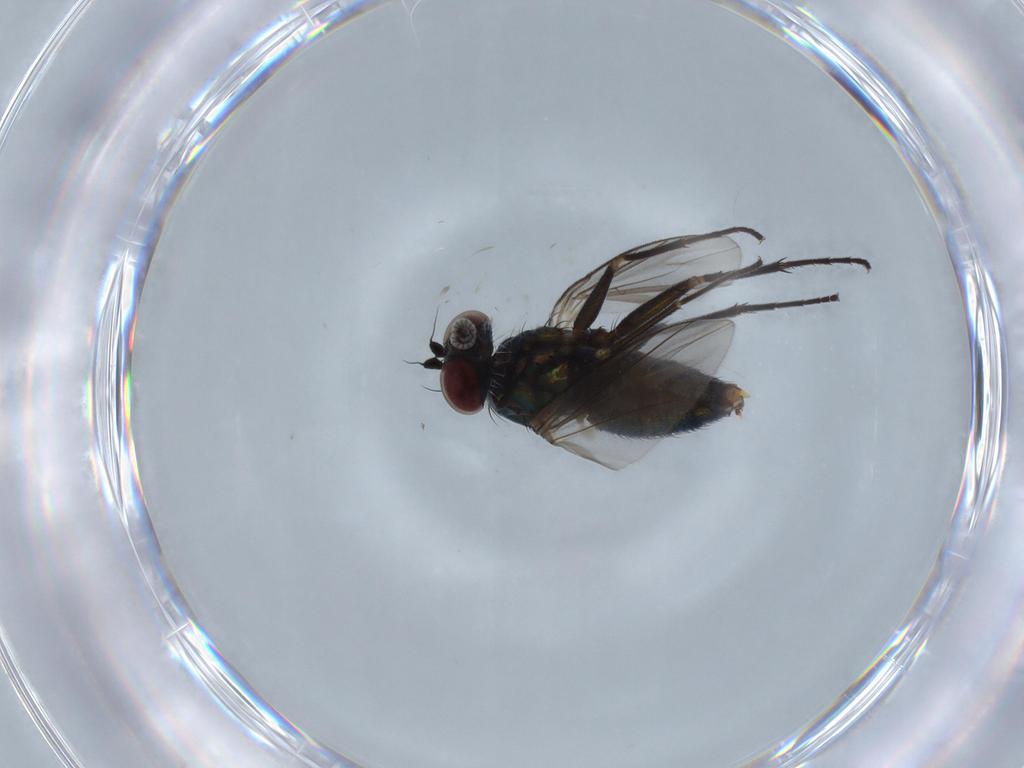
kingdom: Animalia
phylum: Arthropoda
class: Insecta
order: Diptera
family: Dolichopodidae
